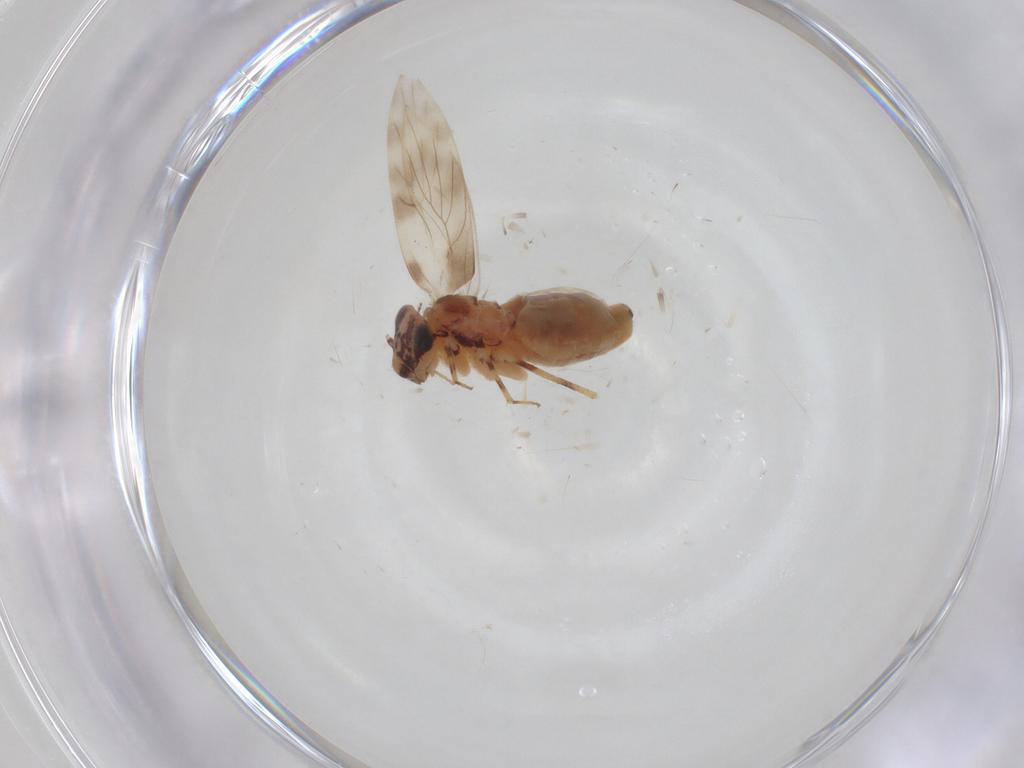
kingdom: Animalia
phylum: Arthropoda
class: Insecta
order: Psocodea
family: Lepidopsocidae
